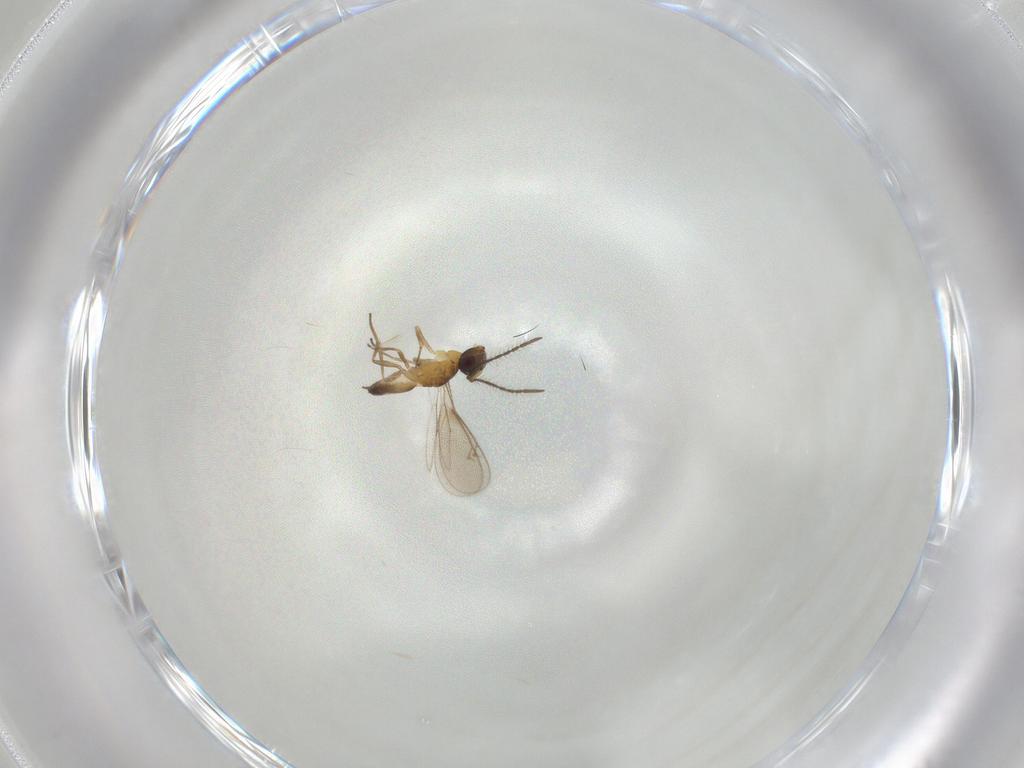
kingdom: Animalia
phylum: Arthropoda
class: Insecta
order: Hymenoptera
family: Eupelmidae
